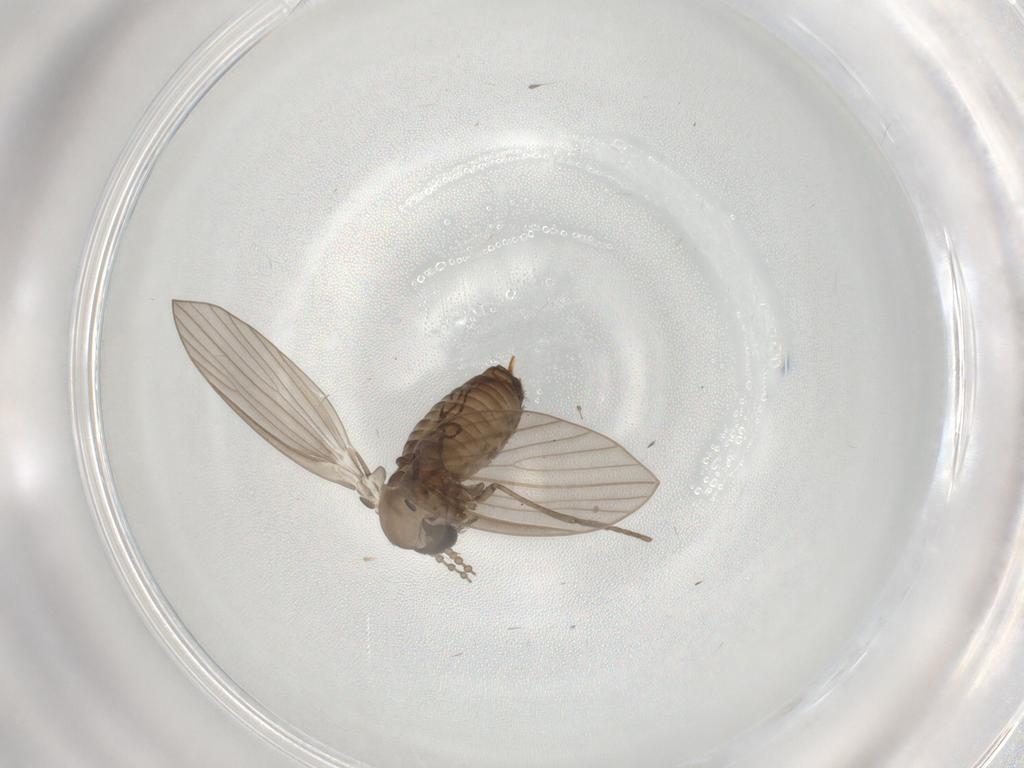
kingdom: Animalia
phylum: Arthropoda
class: Insecta
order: Diptera
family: Psychodidae
